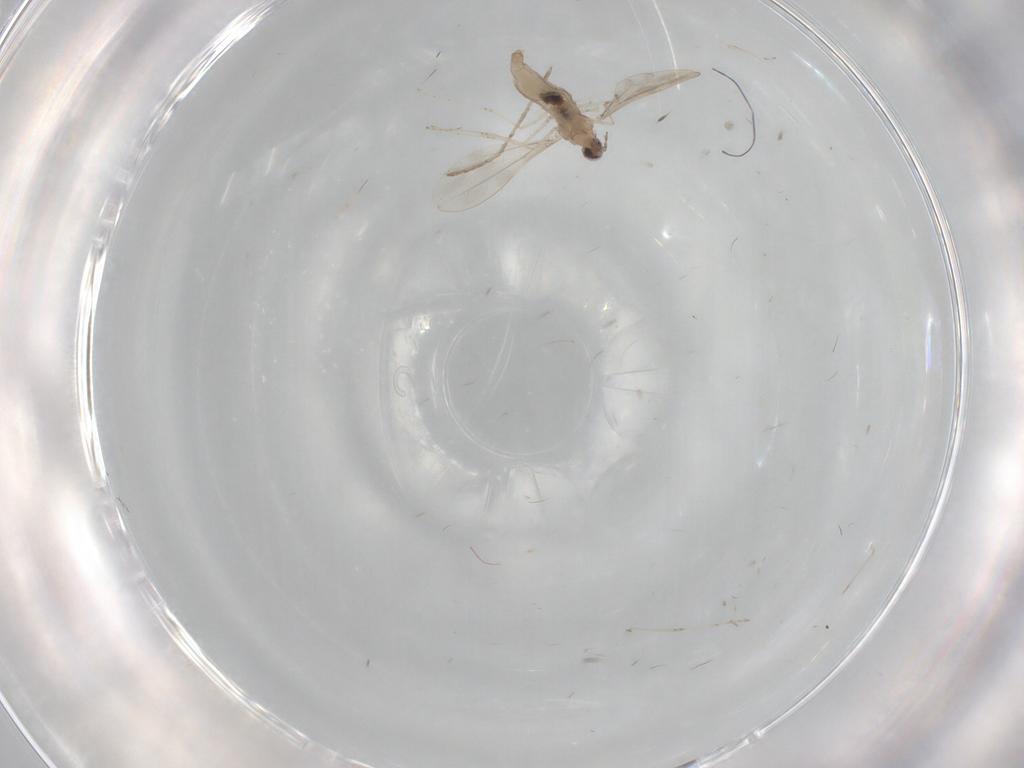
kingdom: Animalia
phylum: Arthropoda
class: Insecta
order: Diptera
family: Cecidomyiidae
